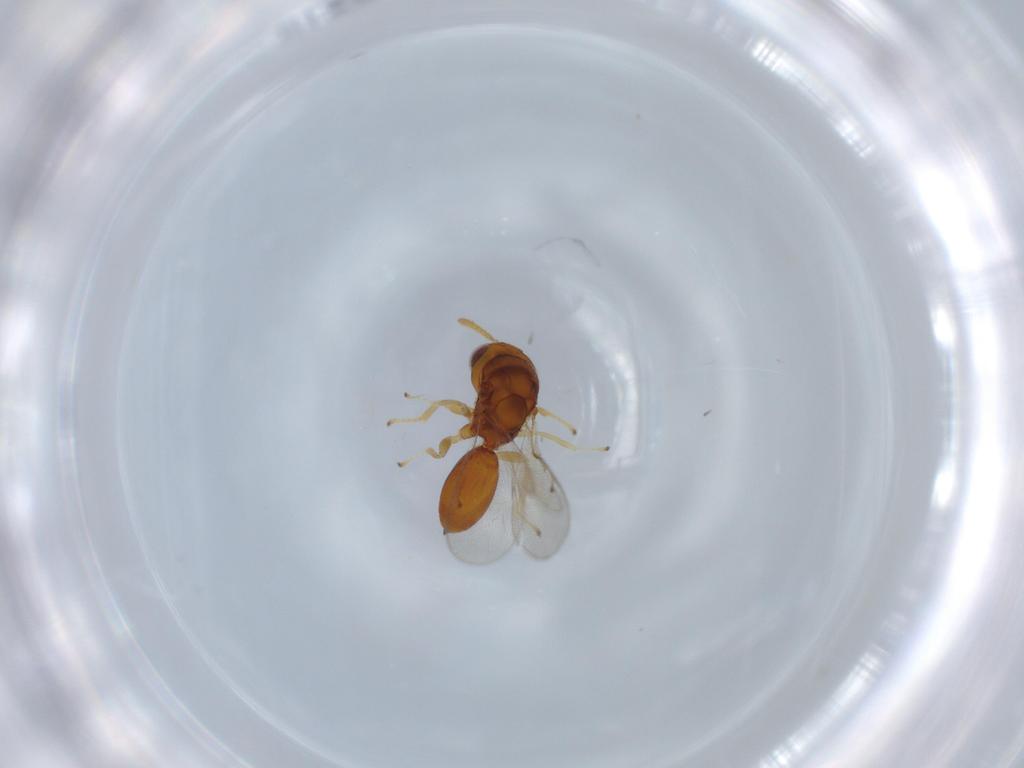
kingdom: Animalia
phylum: Arthropoda
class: Insecta
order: Hymenoptera
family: Eurytomidae
